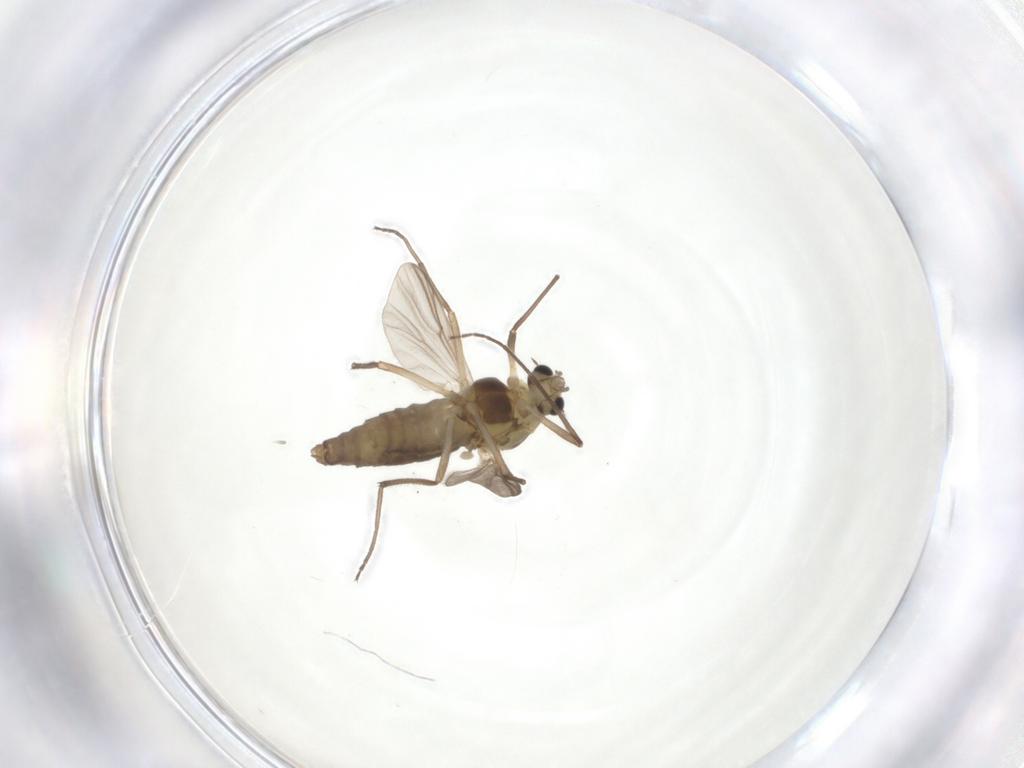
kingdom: Animalia
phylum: Arthropoda
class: Insecta
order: Diptera
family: Chironomidae
